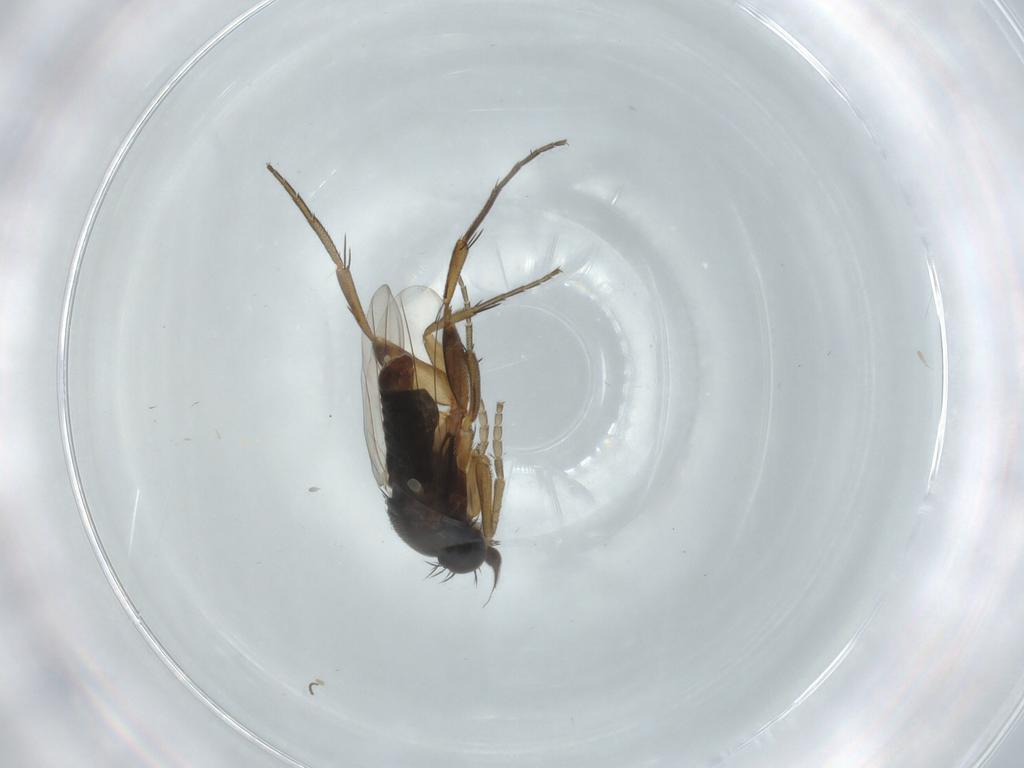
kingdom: Animalia
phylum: Arthropoda
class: Insecta
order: Diptera
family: Phoridae
